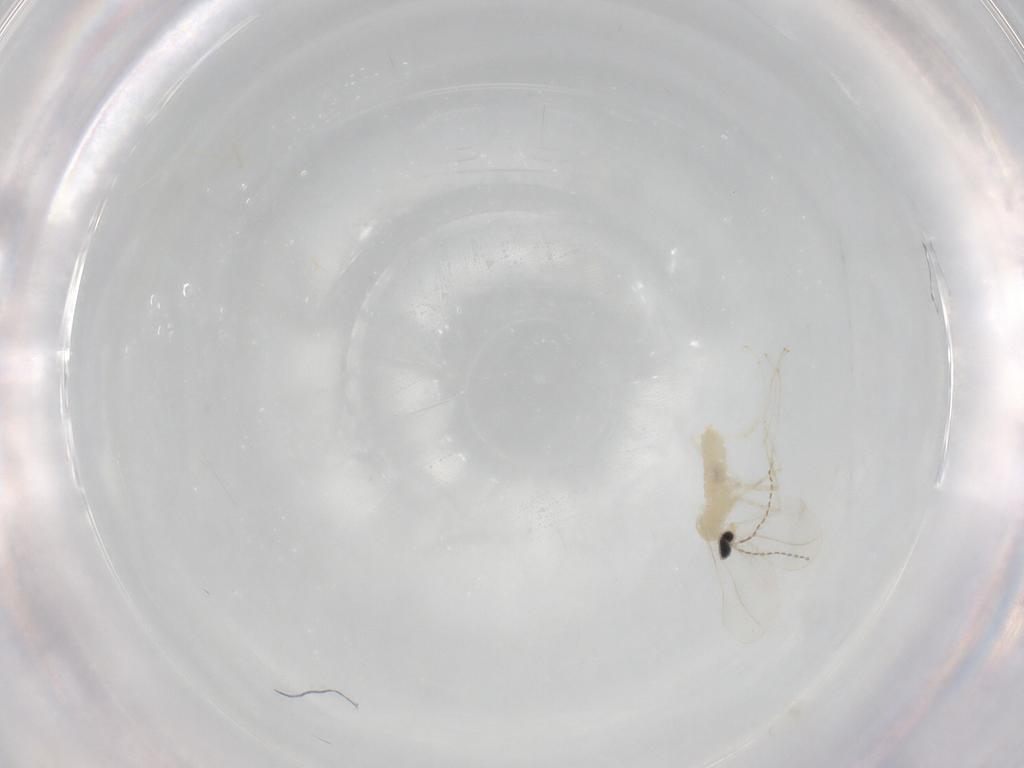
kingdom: Animalia
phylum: Arthropoda
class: Insecta
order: Diptera
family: Cecidomyiidae
